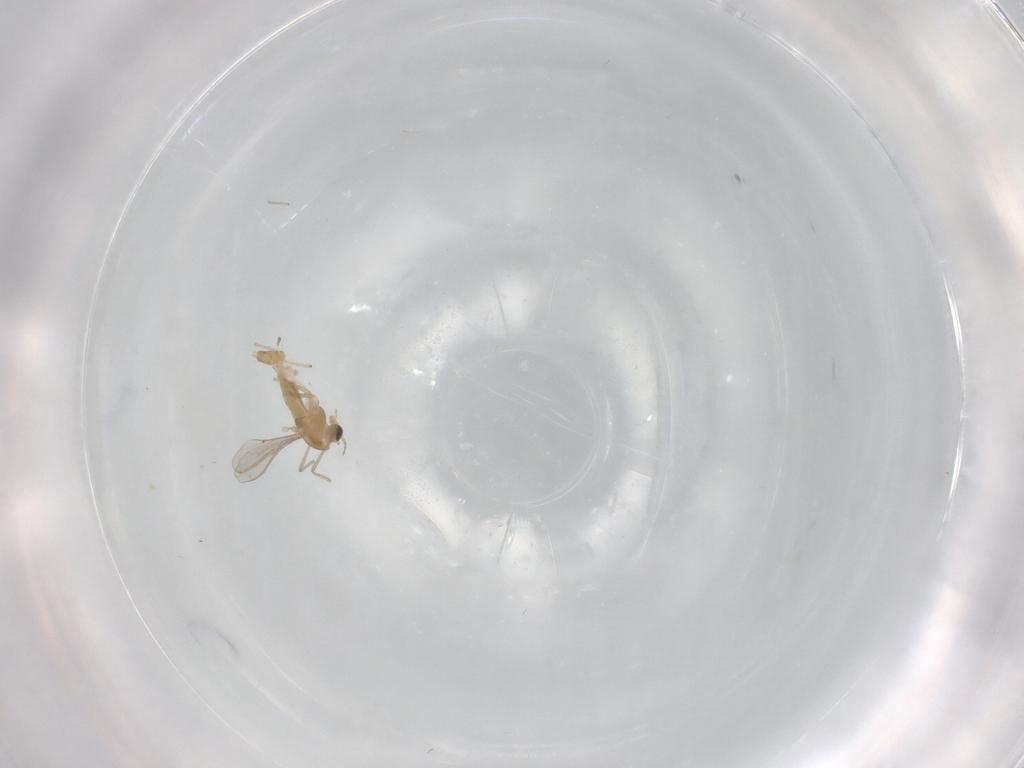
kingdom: Animalia
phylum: Arthropoda
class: Insecta
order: Diptera
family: Chironomidae
